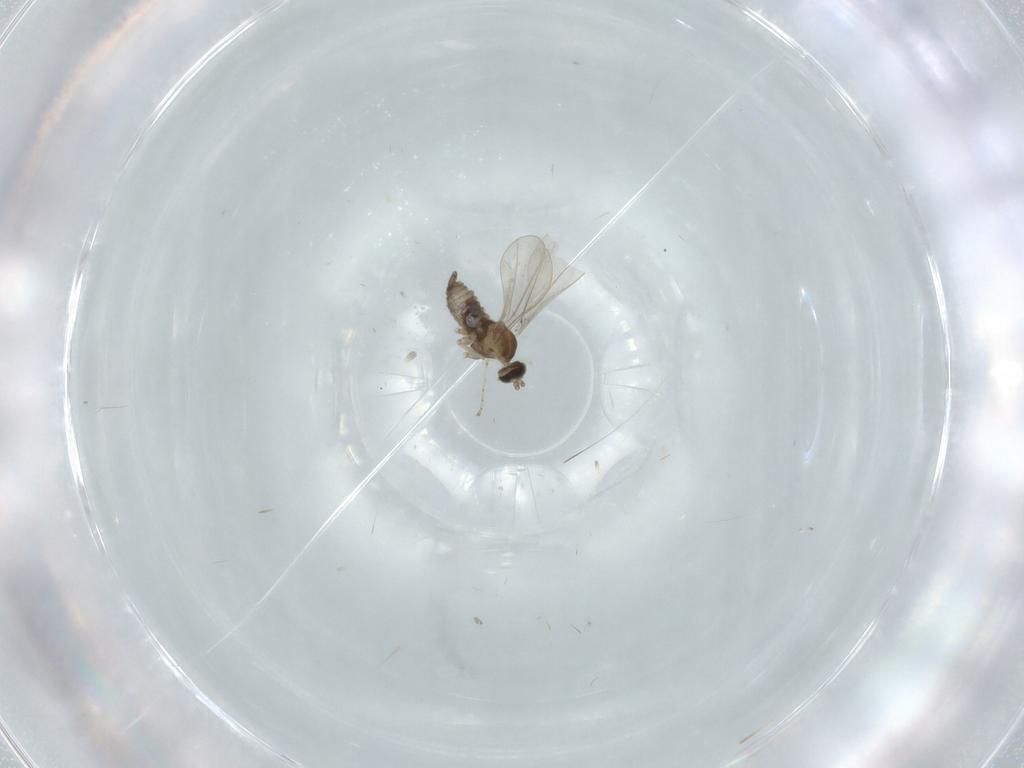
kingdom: Animalia
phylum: Arthropoda
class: Insecta
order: Diptera
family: Cecidomyiidae
